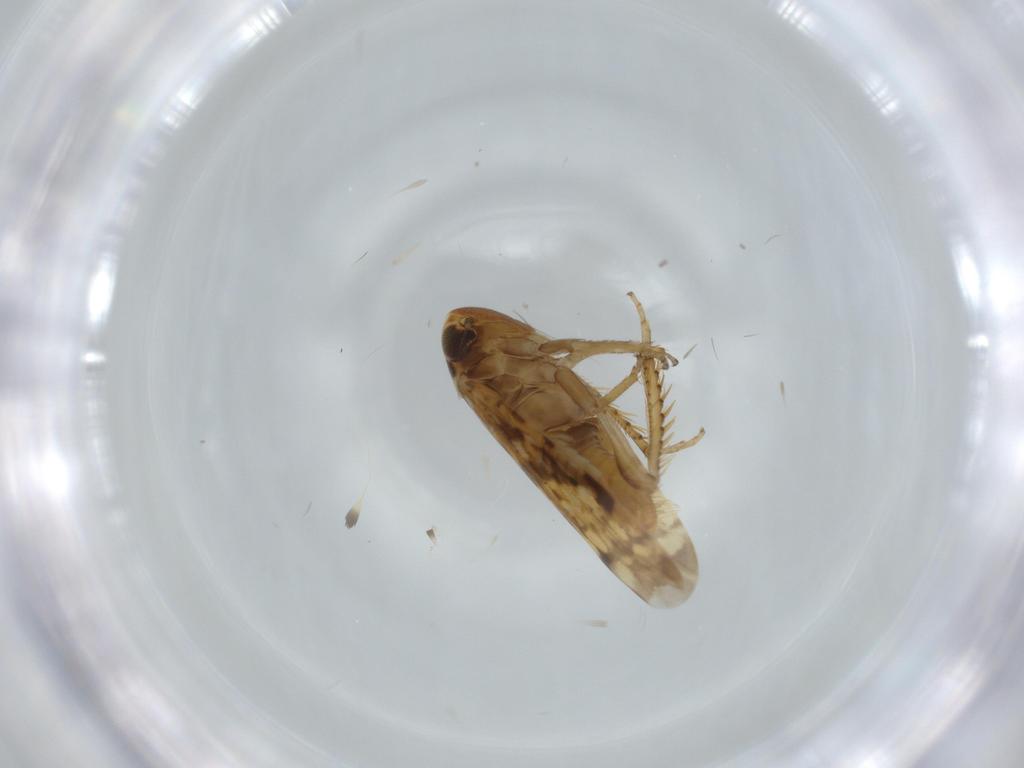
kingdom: Animalia
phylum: Arthropoda
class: Insecta
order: Hemiptera
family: Cicadellidae
